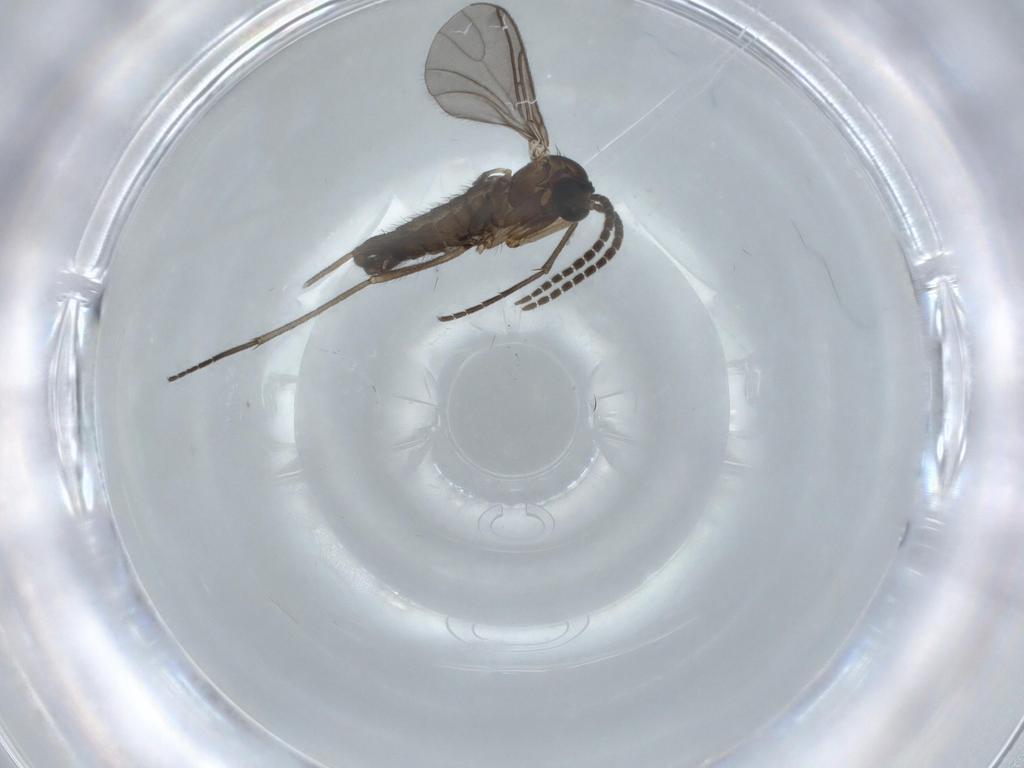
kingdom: Animalia
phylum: Arthropoda
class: Insecta
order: Diptera
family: Sciaridae
